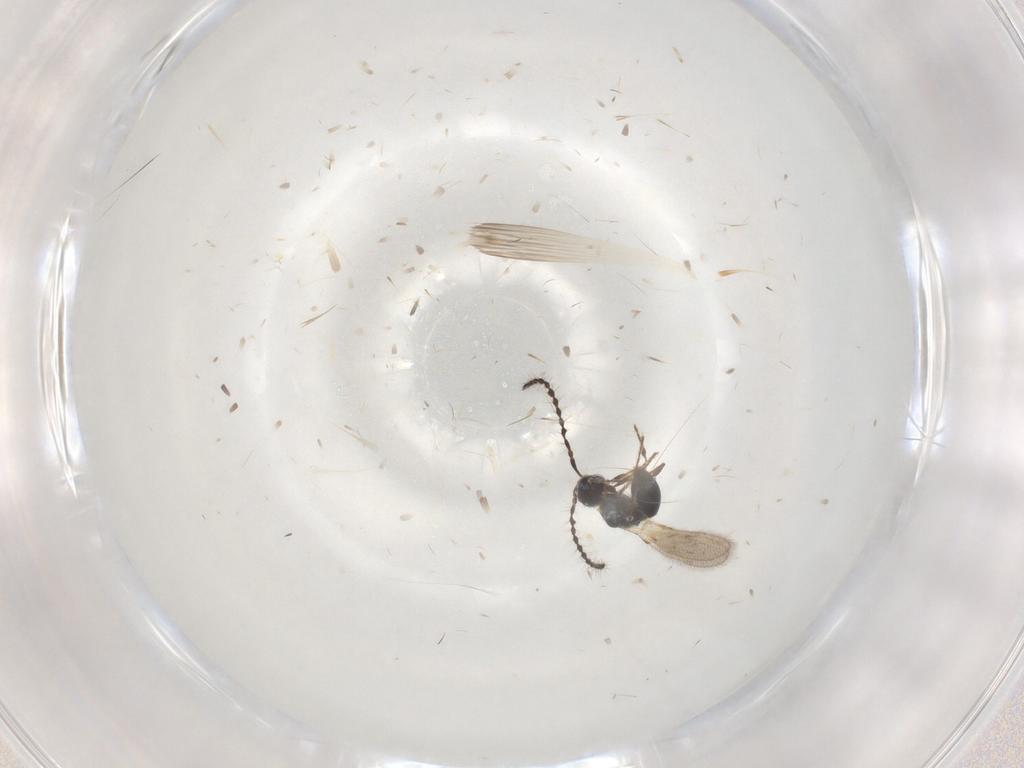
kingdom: Animalia
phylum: Arthropoda
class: Insecta
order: Hymenoptera
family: Diapriidae
